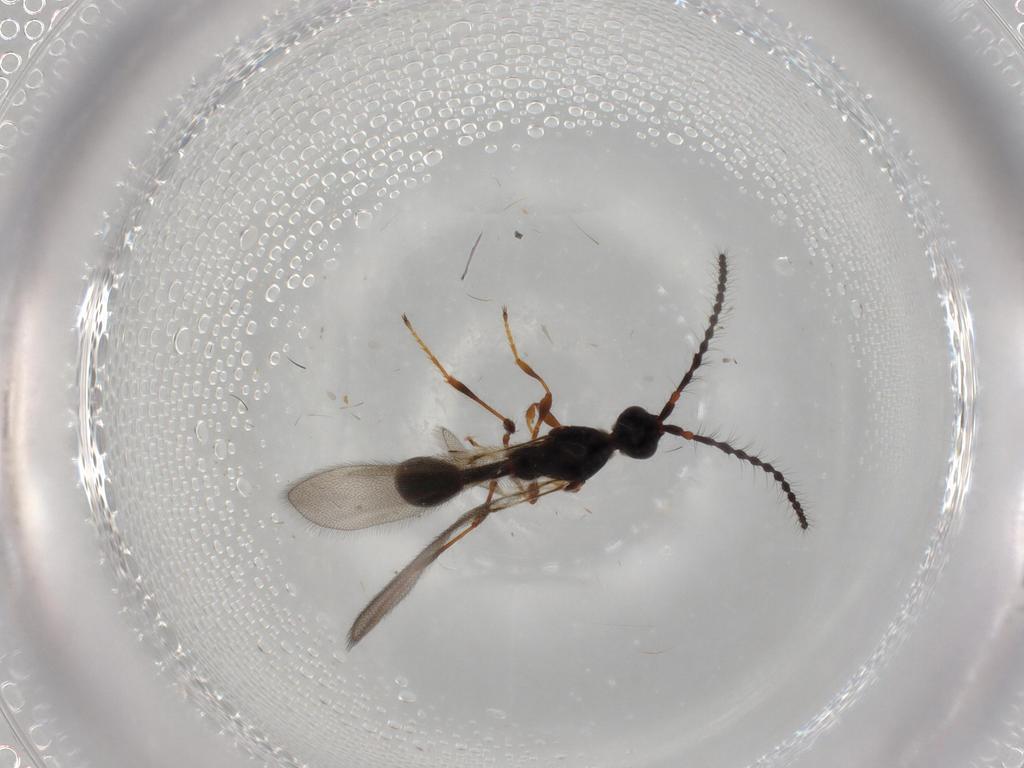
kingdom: Animalia
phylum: Arthropoda
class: Insecta
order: Hymenoptera
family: Diapriidae
